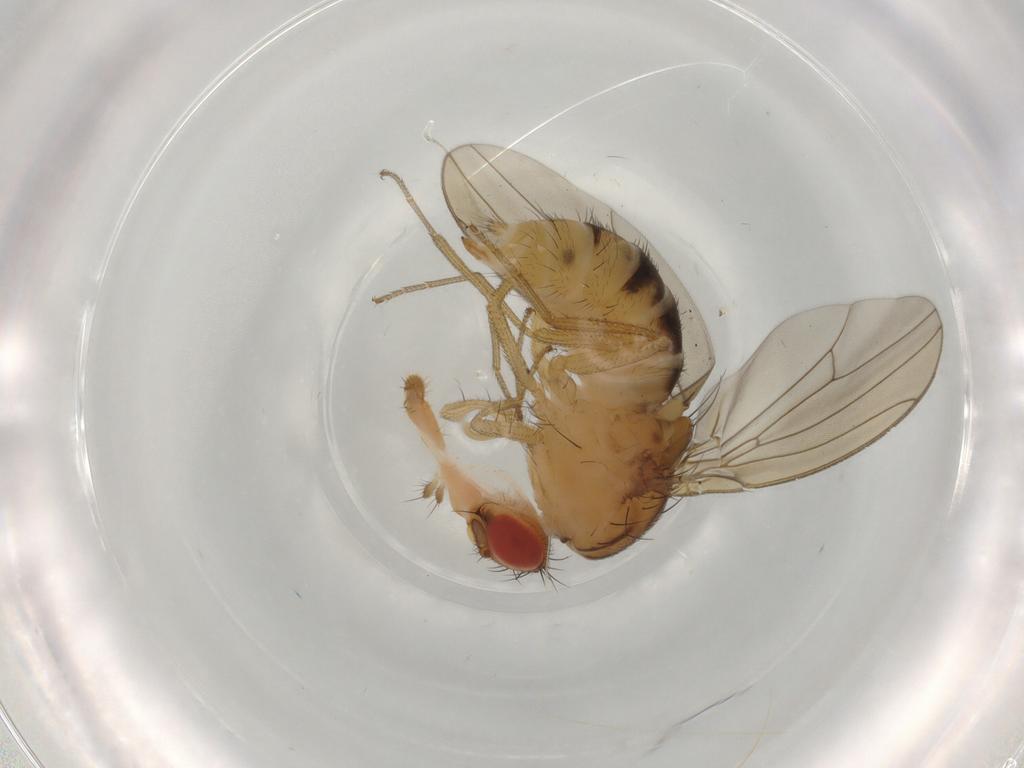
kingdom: Animalia
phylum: Arthropoda
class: Insecta
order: Diptera
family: Drosophilidae
